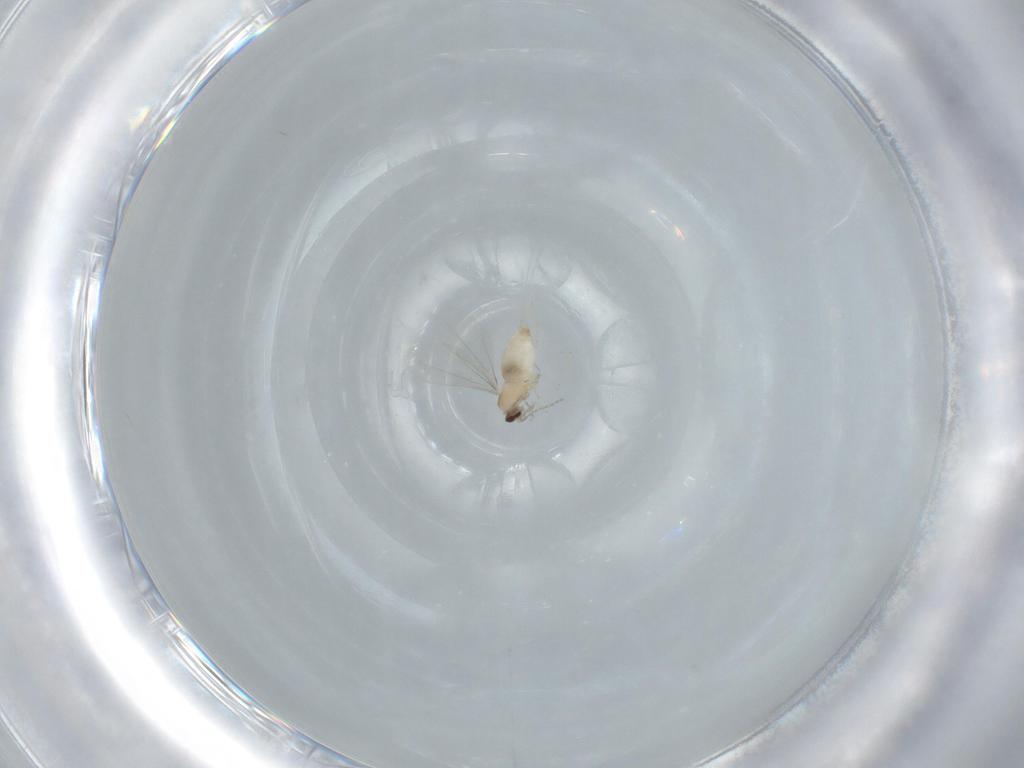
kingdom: Animalia
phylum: Arthropoda
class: Insecta
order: Diptera
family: Cecidomyiidae
